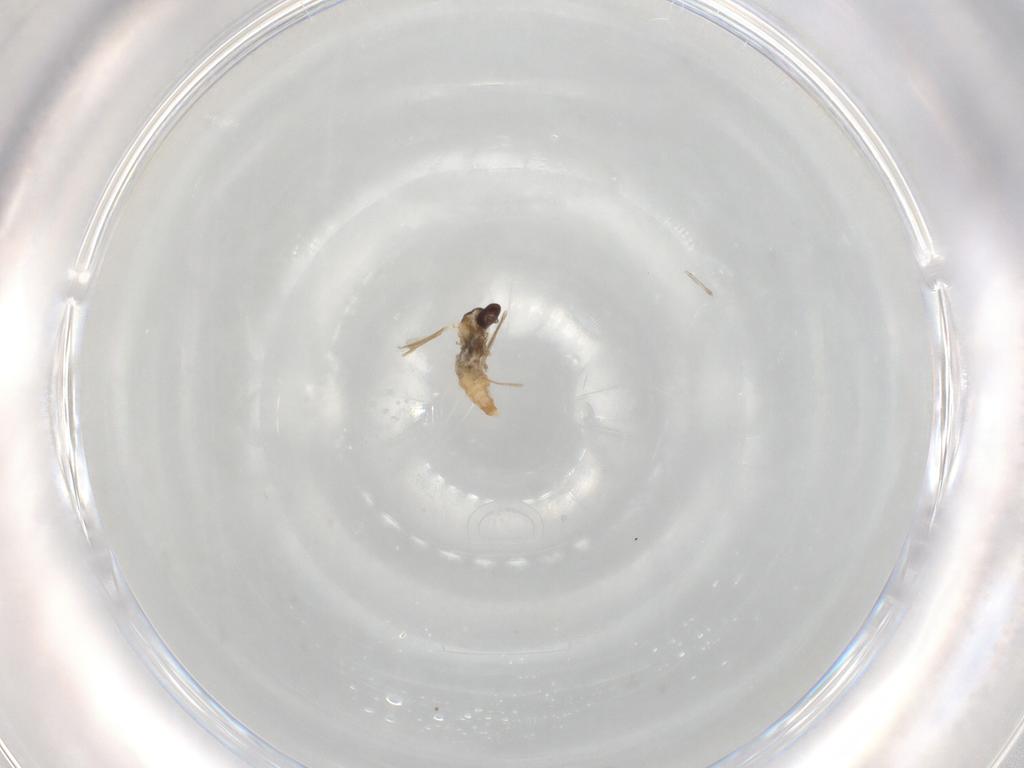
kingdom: Animalia
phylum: Arthropoda
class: Insecta
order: Diptera
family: Cecidomyiidae
